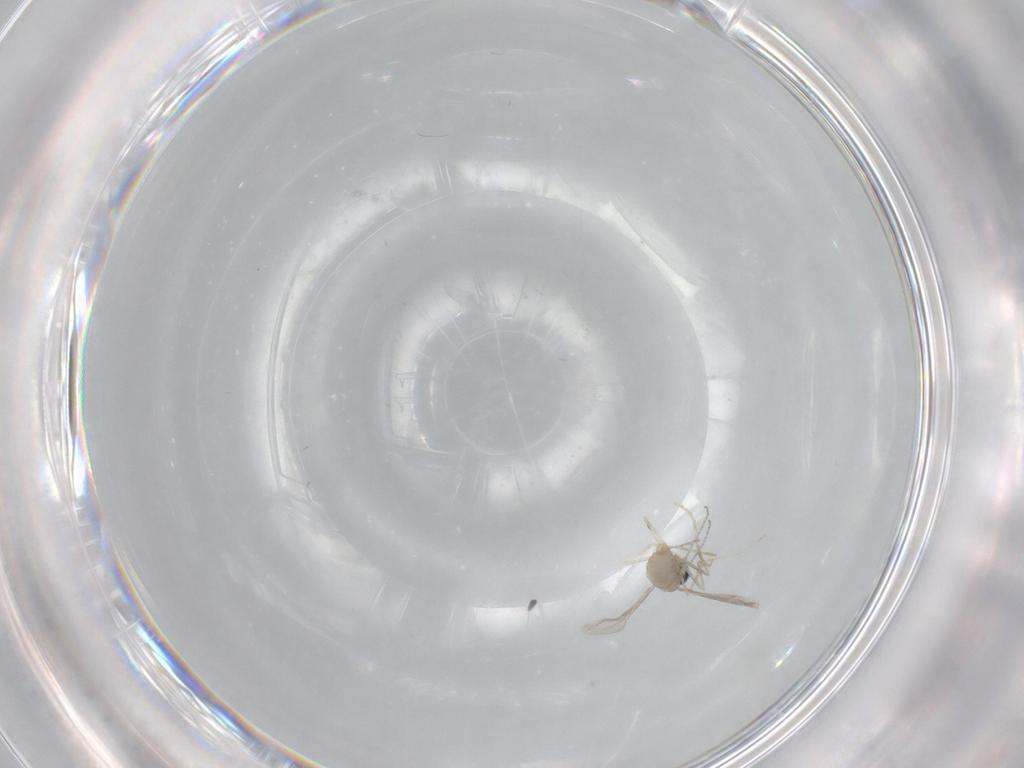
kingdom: Animalia
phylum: Arthropoda
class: Insecta
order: Diptera
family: Cecidomyiidae
